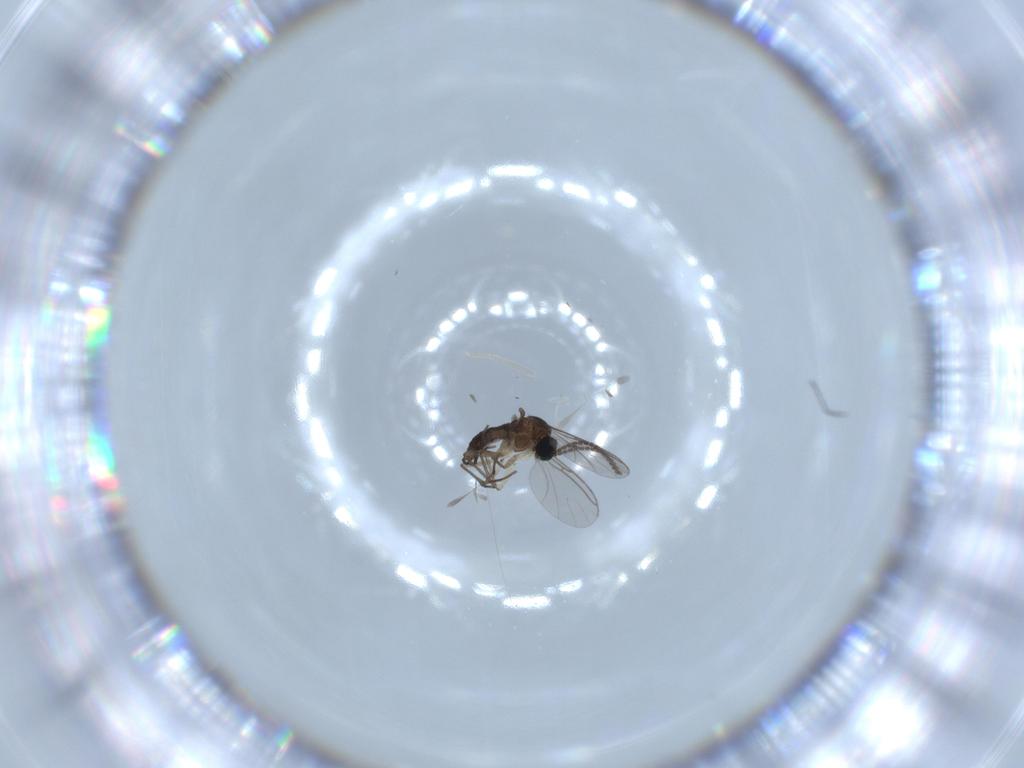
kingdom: Animalia
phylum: Arthropoda
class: Insecta
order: Diptera
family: Sciaridae
